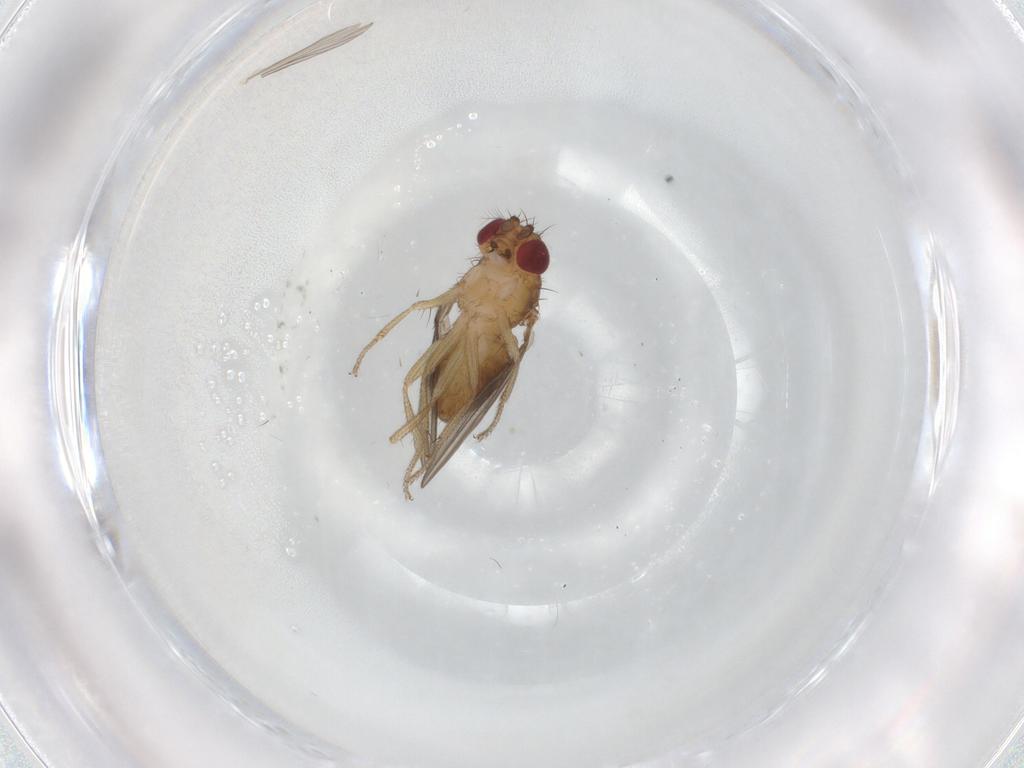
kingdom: Animalia
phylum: Arthropoda
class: Insecta
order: Diptera
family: Drosophilidae
